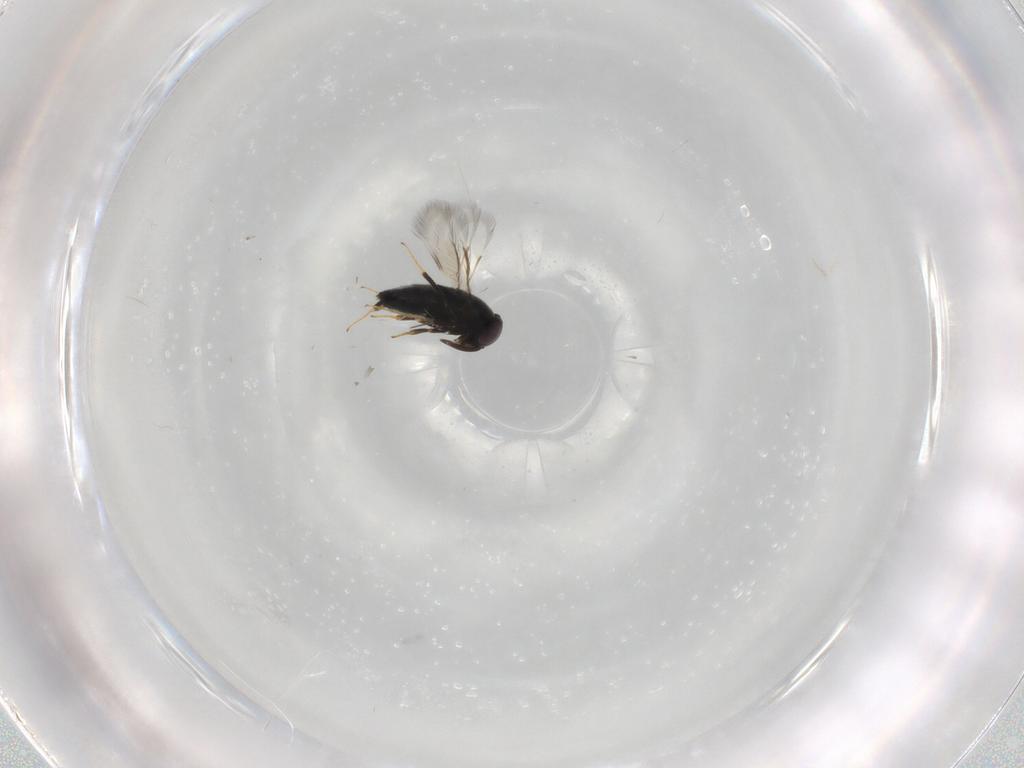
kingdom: Animalia
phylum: Arthropoda
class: Insecta
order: Hymenoptera
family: Signiphoridae
